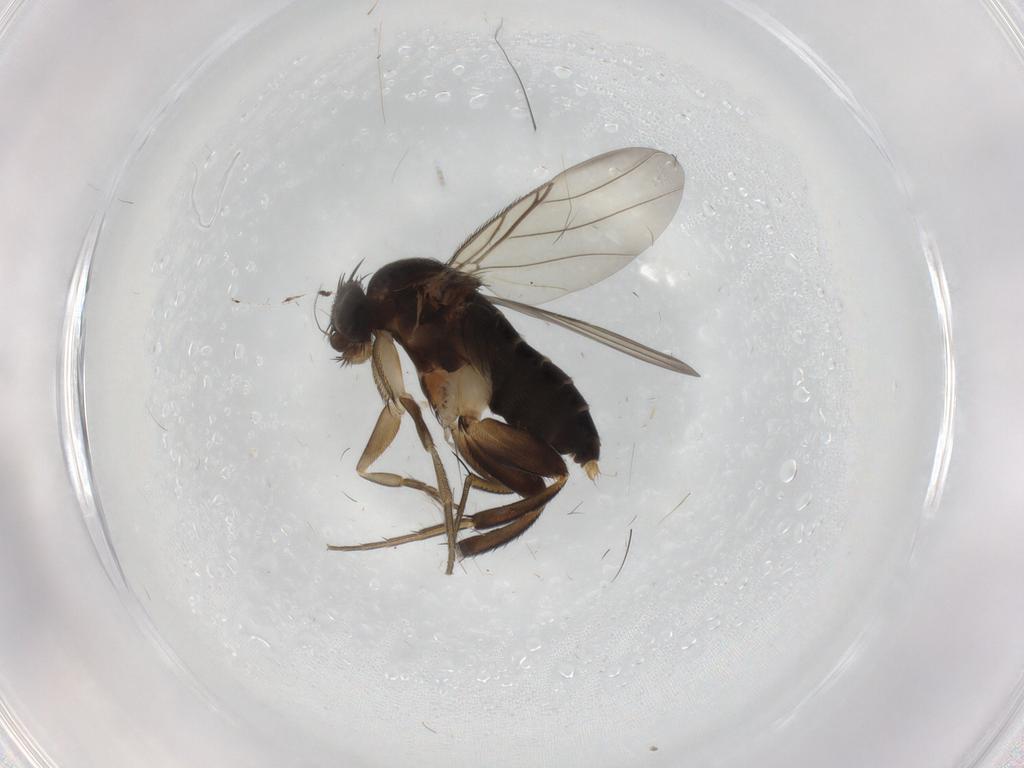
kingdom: Animalia
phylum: Arthropoda
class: Insecta
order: Diptera
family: Phoridae
